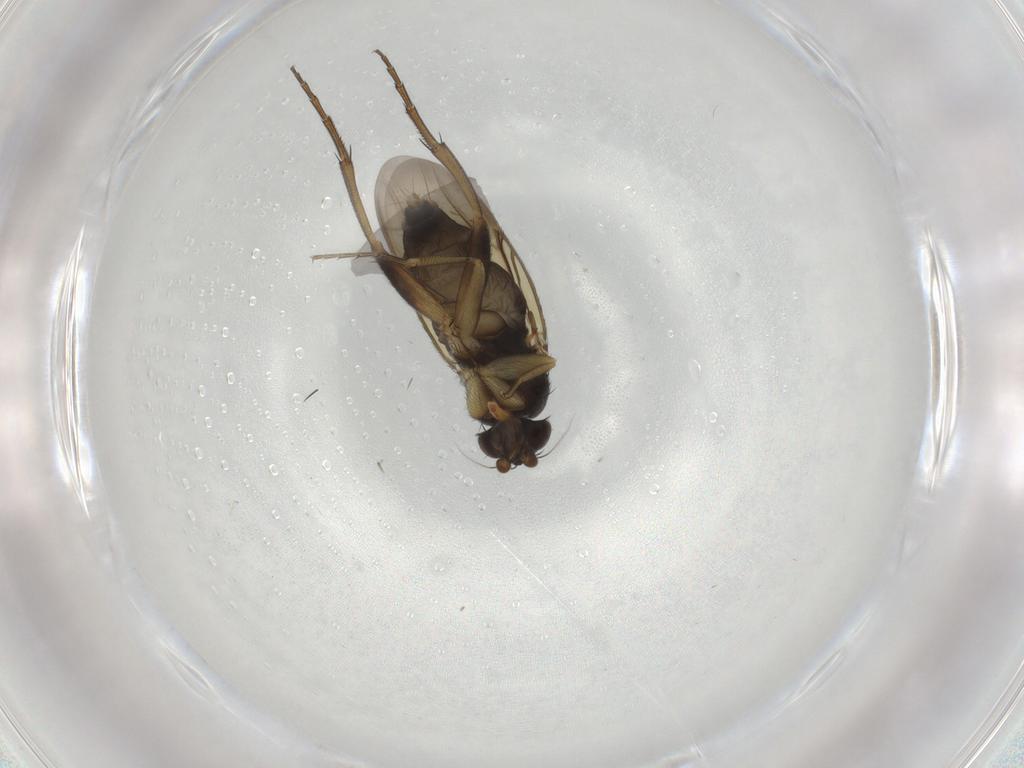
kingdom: Animalia
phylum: Arthropoda
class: Insecta
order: Diptera
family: Phoridae
